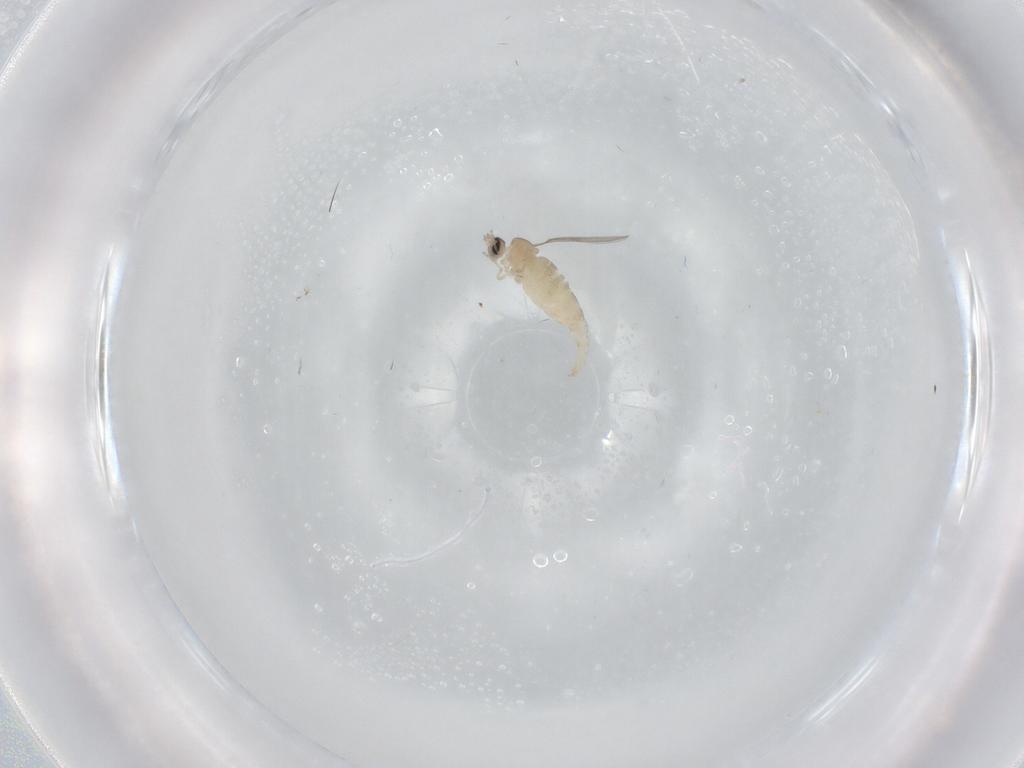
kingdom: Animalia
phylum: Arthropoda
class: Insecta
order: Diptera
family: Cecidomyiidae
